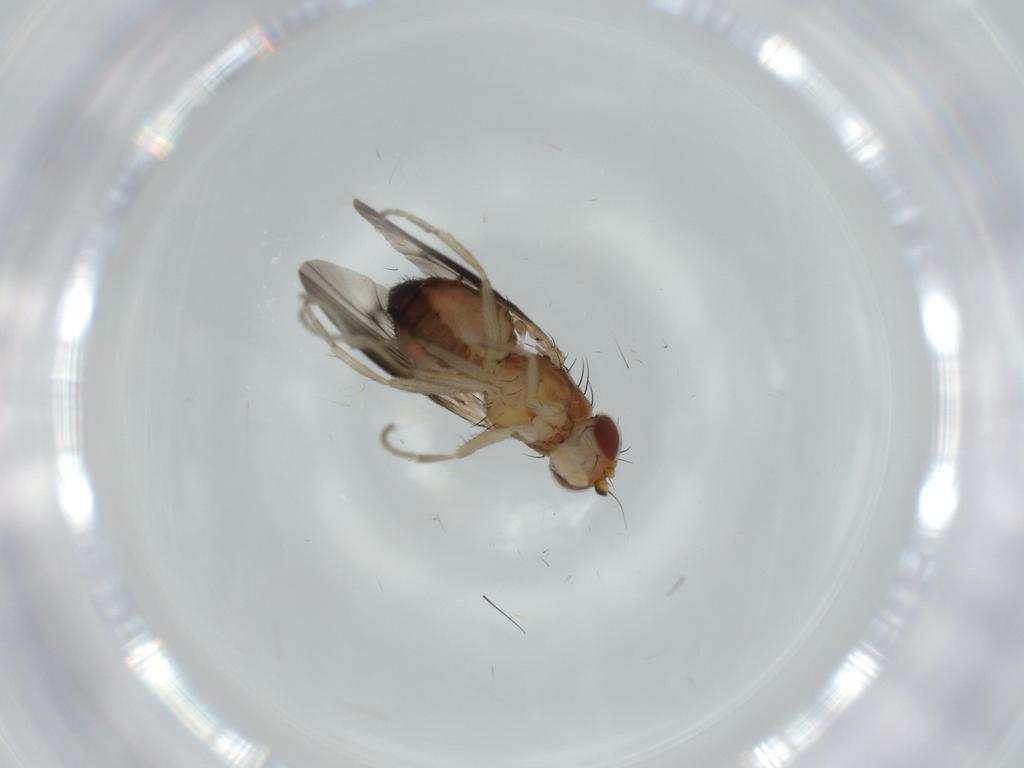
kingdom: Animalia
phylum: Arthropoda
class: Insecta
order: Diptera
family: Heleomyzidae
